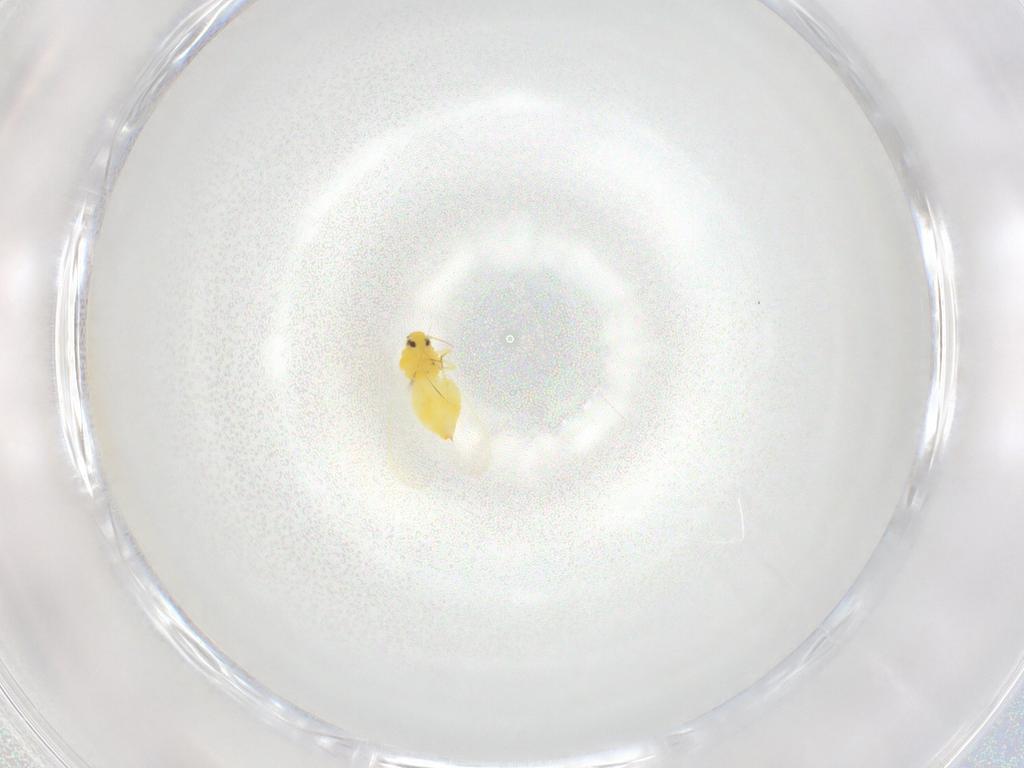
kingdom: Animalia
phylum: Arthropoda
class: Insecta
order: Hemiptera
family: Aleyrodidae
